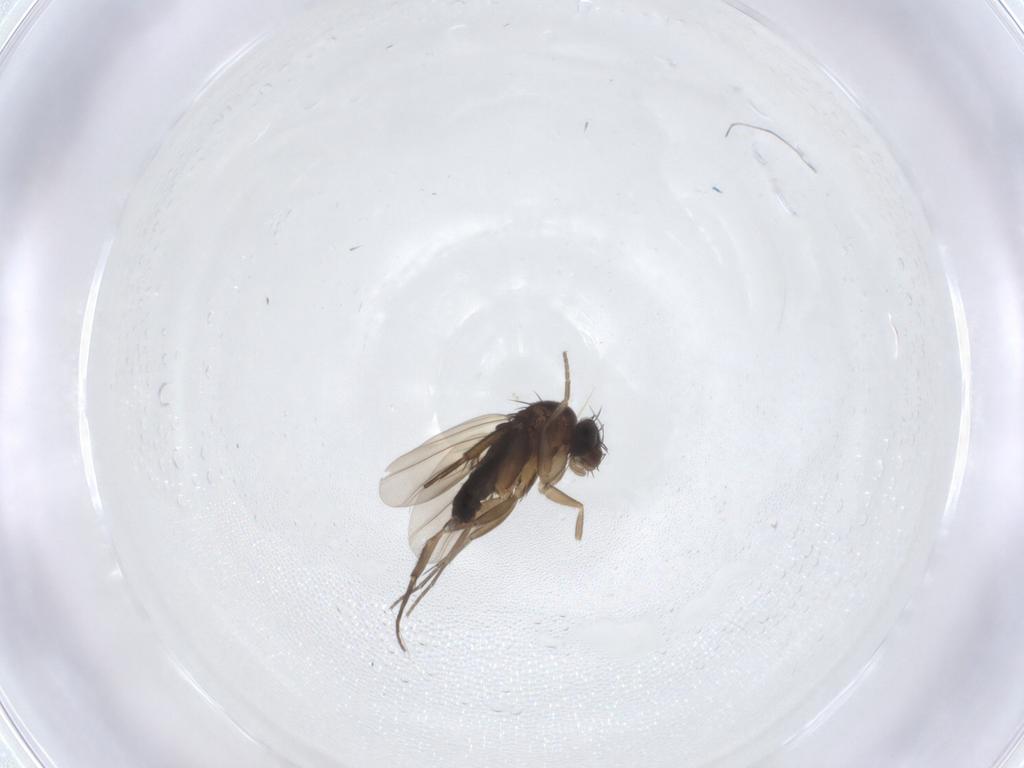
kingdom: Animalia
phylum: Arthropoda
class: Insecta
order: Diptera
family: Phoridae
